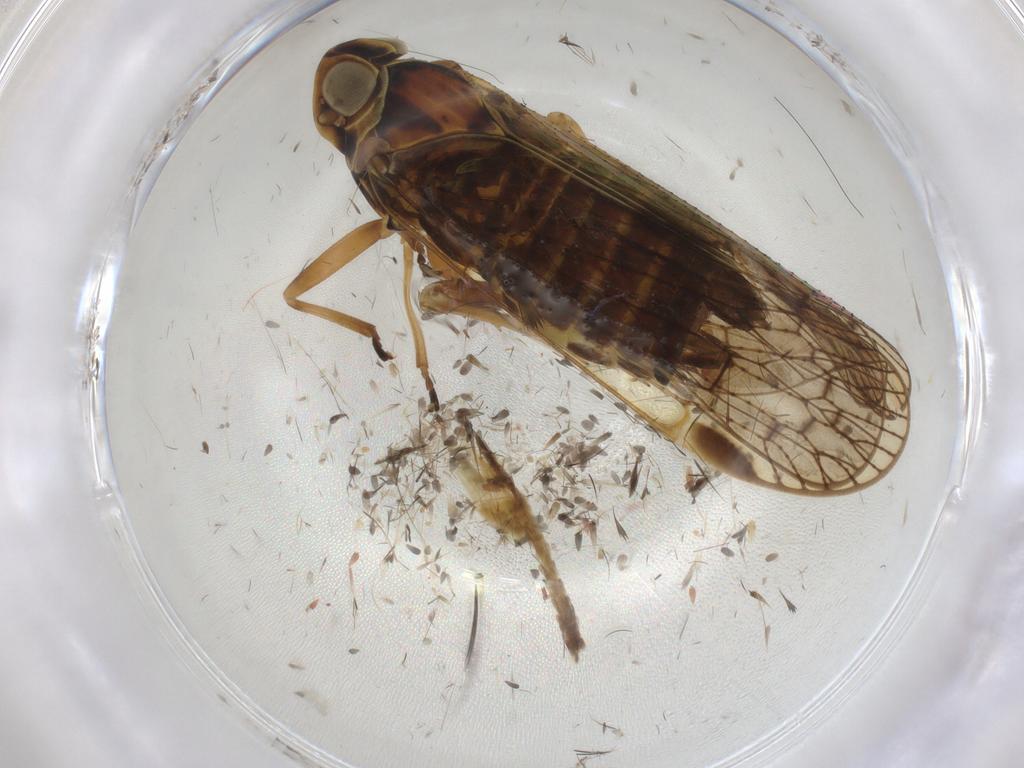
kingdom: Animalia
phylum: Arthropoda
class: Insecta
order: Hemiptera
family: Cixiidae
